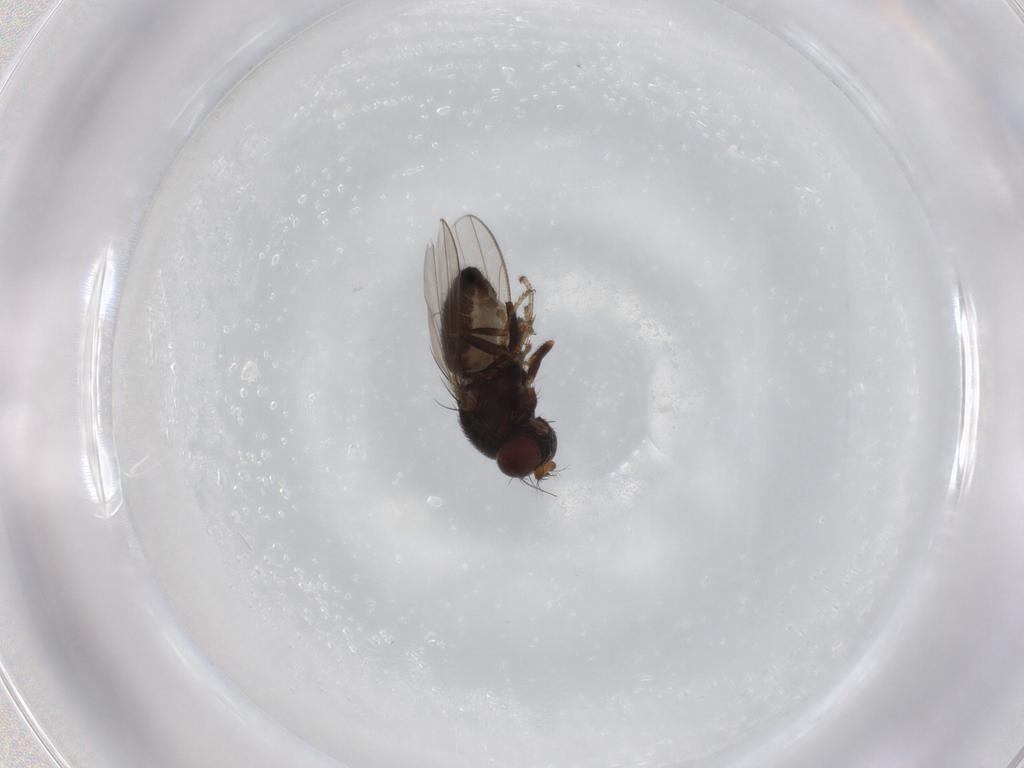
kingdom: Animalia
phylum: Arthropoda
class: Insecta
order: Diptera
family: Ephydridae
